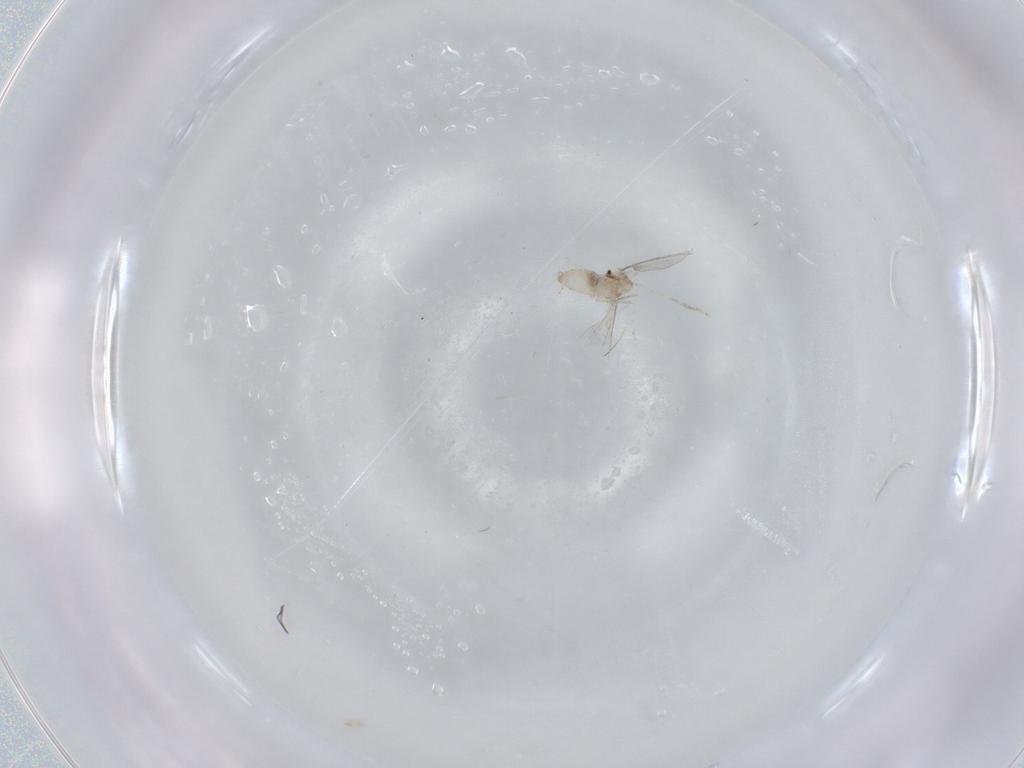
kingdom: Animalia
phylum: Arthropoda
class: Insecta
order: Diptera
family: Cecidomyiidae
